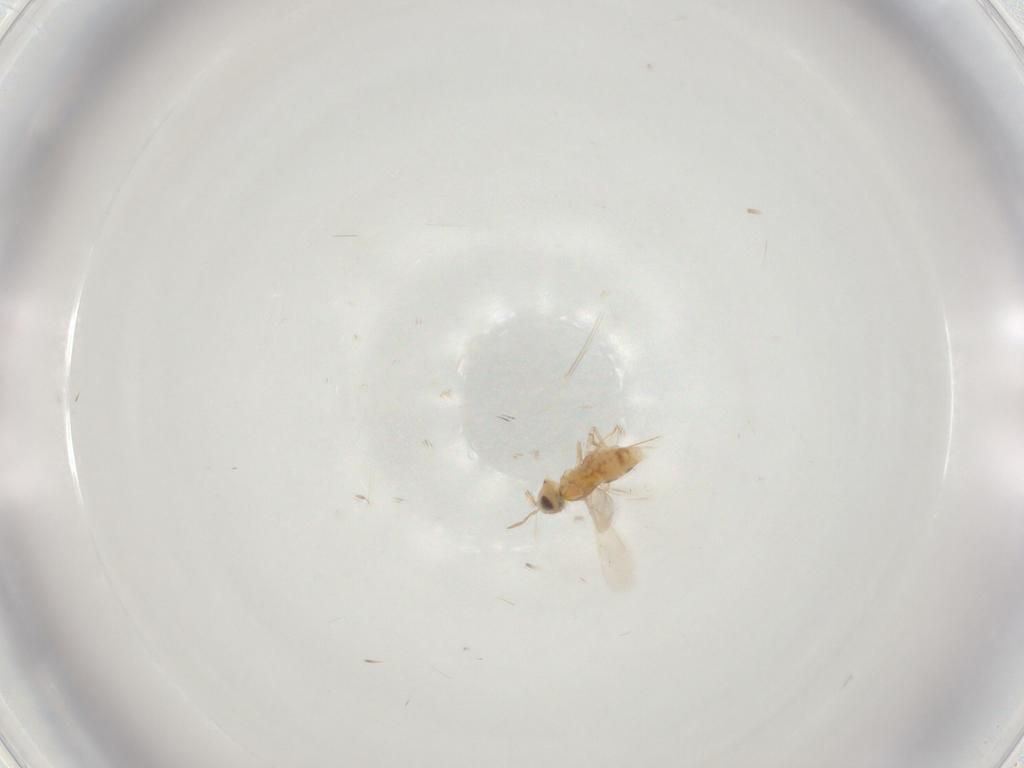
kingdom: Animalia
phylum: Arthropoda
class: Insecta
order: Hymenoptera
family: Aphelinidae
